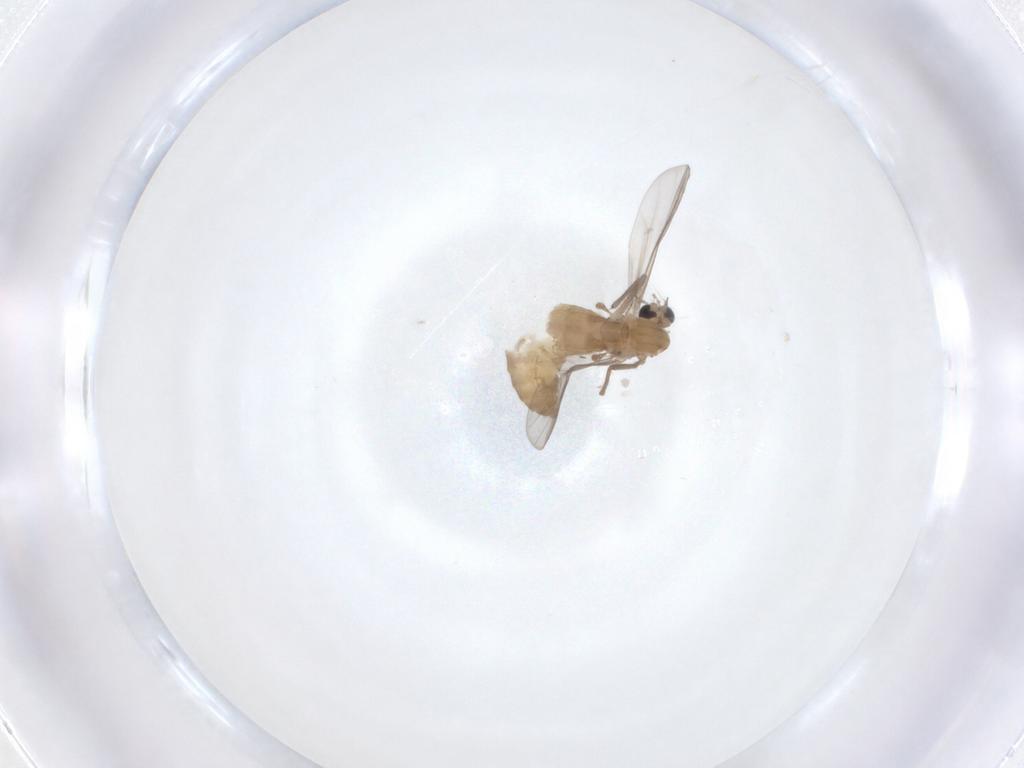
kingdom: Animalia
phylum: Arthropoda
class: Insecta
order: Diptera
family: Chironomidae
